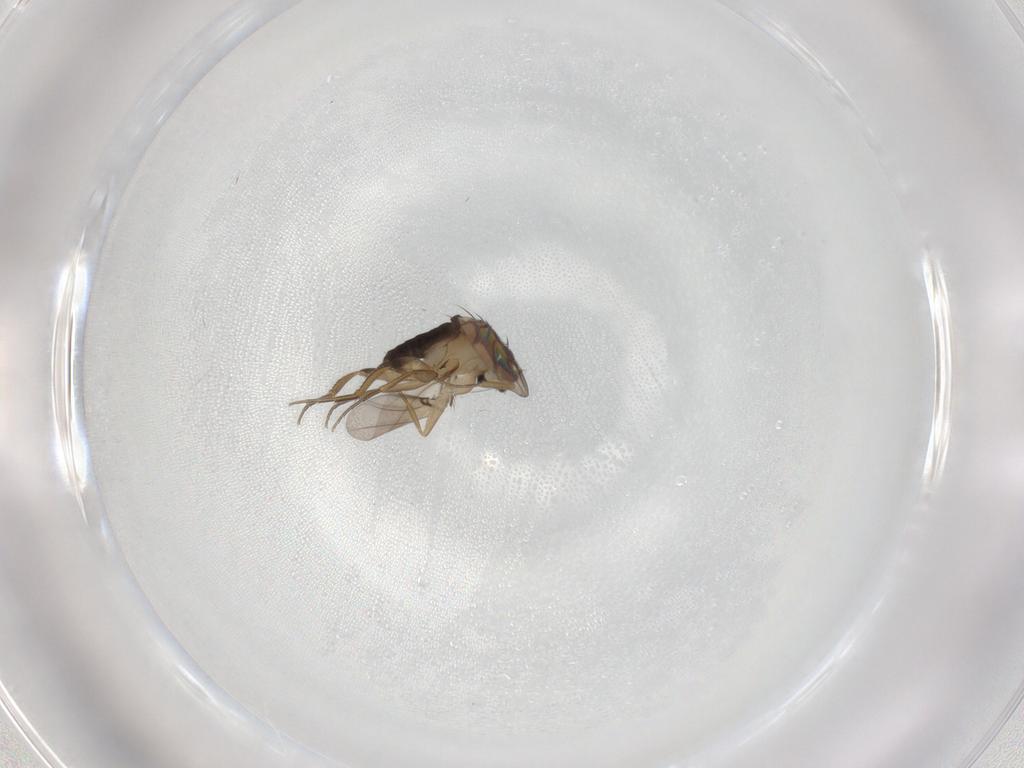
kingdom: Animalia
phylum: Arthropoda
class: Insecta
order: Diptera
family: Phoridae
